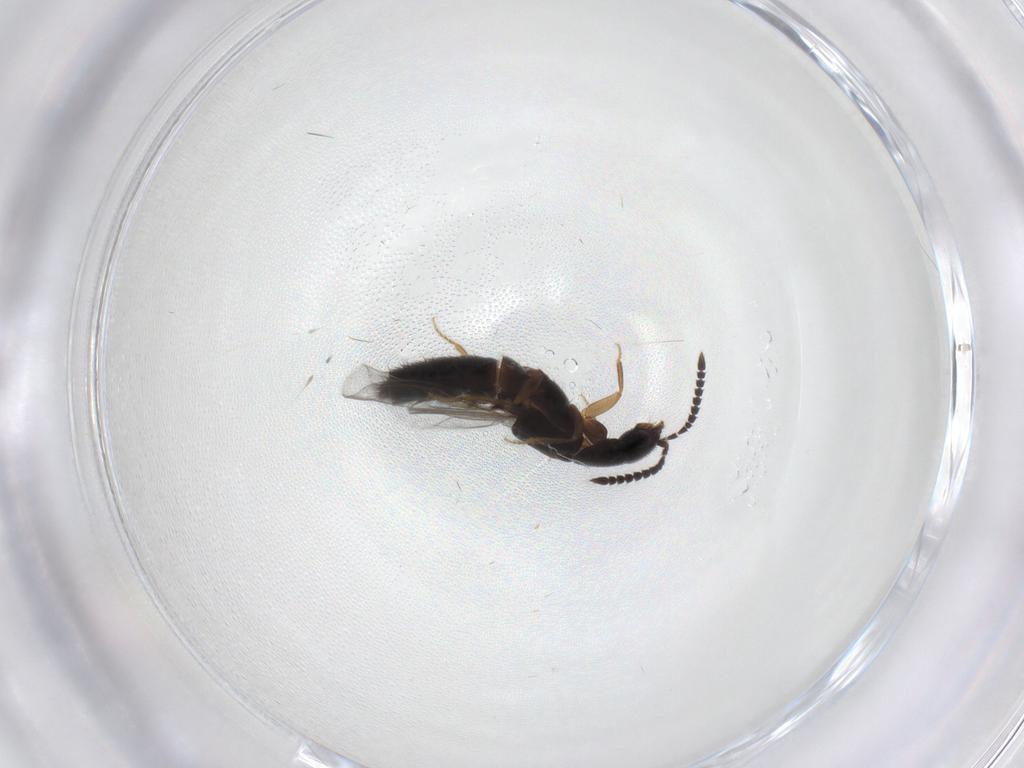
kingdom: Animalia
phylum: Arthropoda
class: Insecta
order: Coleoptera
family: Staphylinidae
